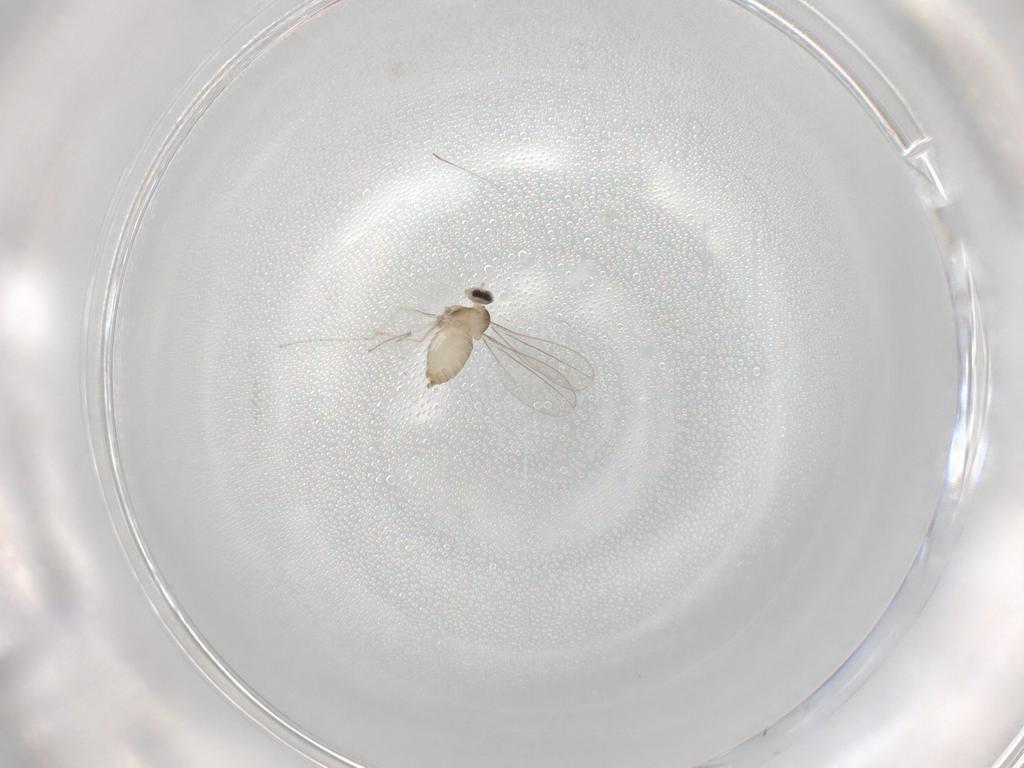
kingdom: Animalia
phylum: Arthropoda
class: Insecta
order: Diptera
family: Cecidomyiidae
